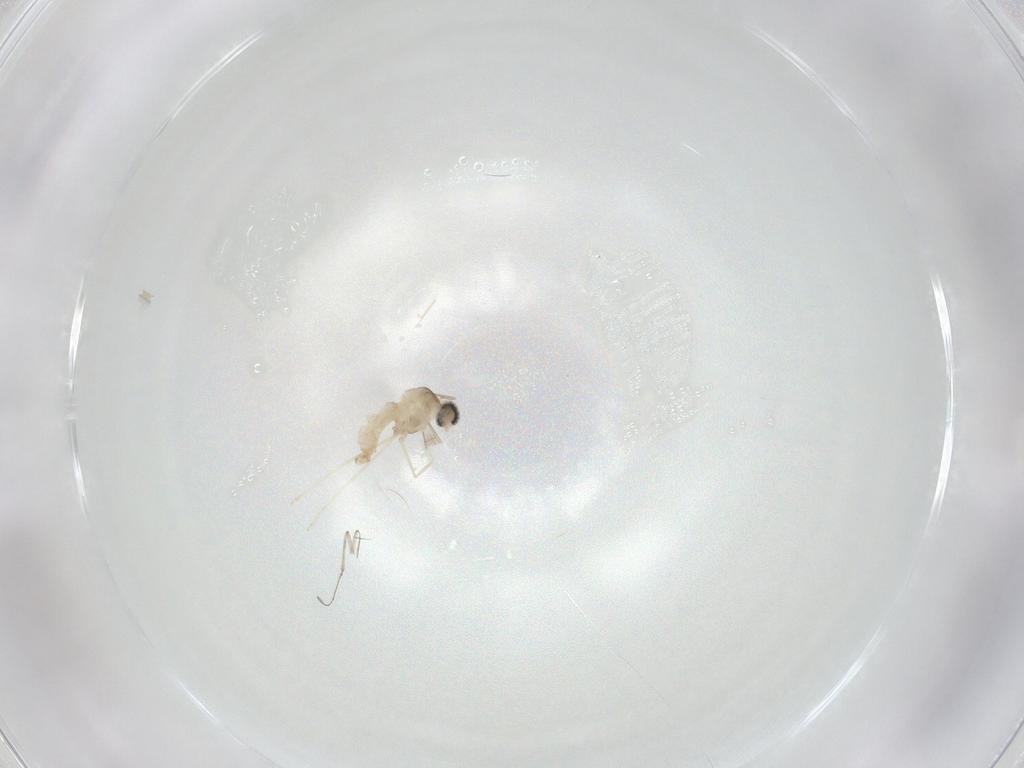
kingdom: Animalia
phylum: Arthropoda
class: Insecta
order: Diptera
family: Cecidomyiidae
